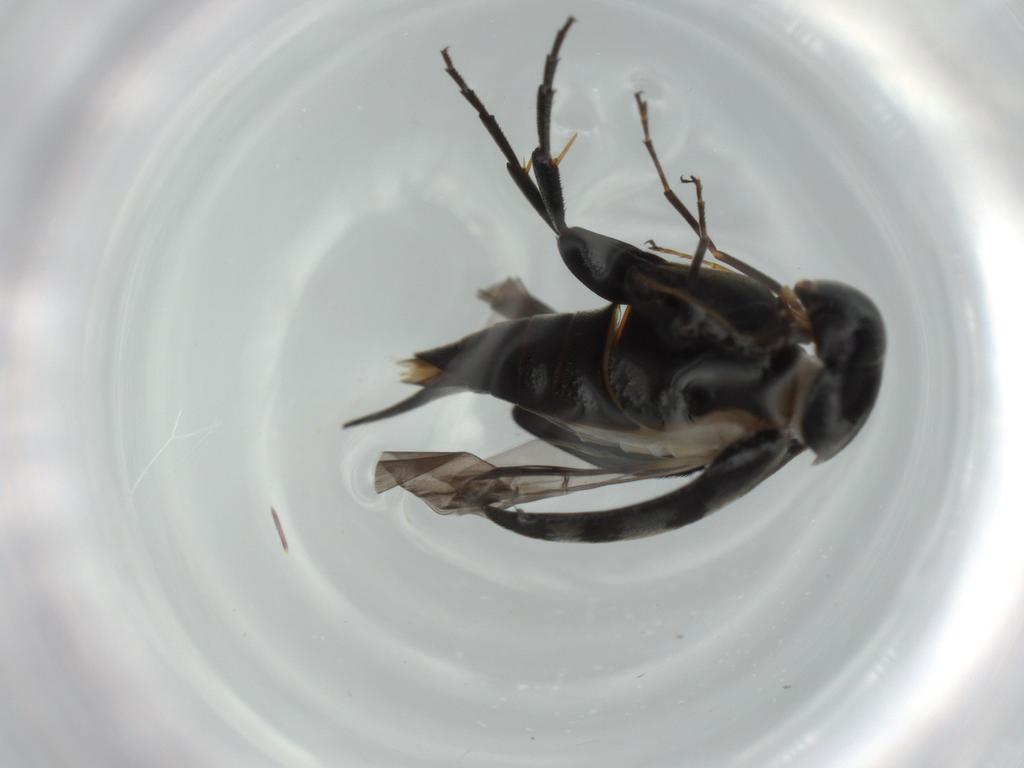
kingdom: Animalia
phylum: Arthropoda
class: Insecta
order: Coleoptera
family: Chrysomelidae
